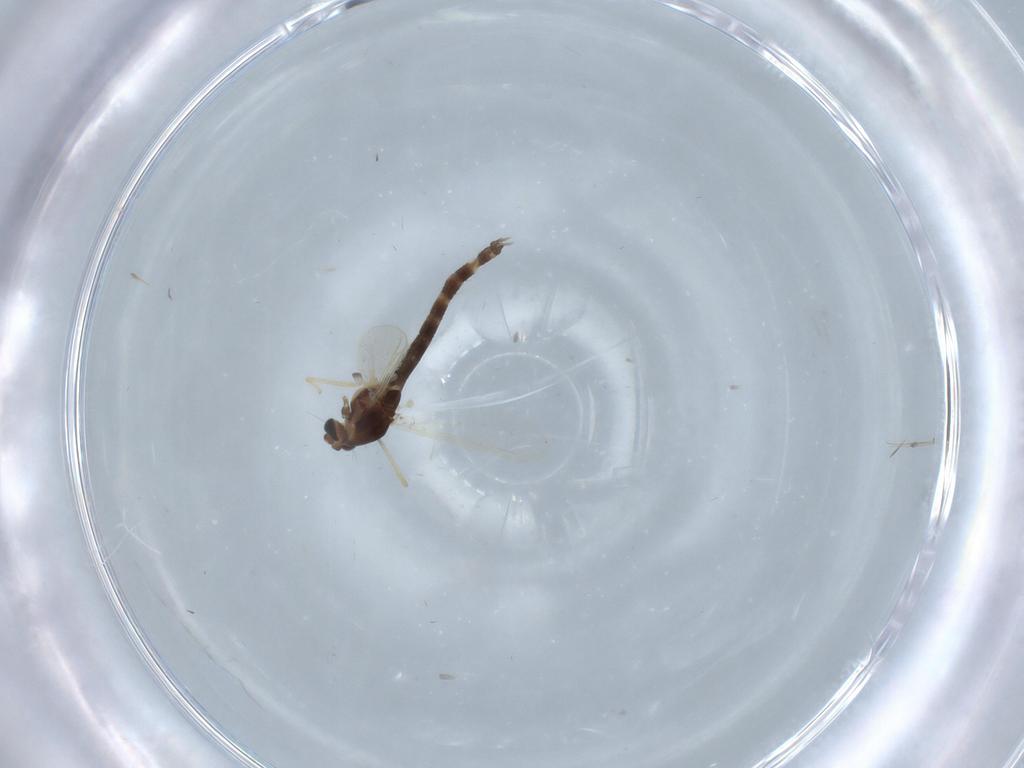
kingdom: Animalia
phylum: Arthropoda
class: Insecta
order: Diptera
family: Chironomidae
